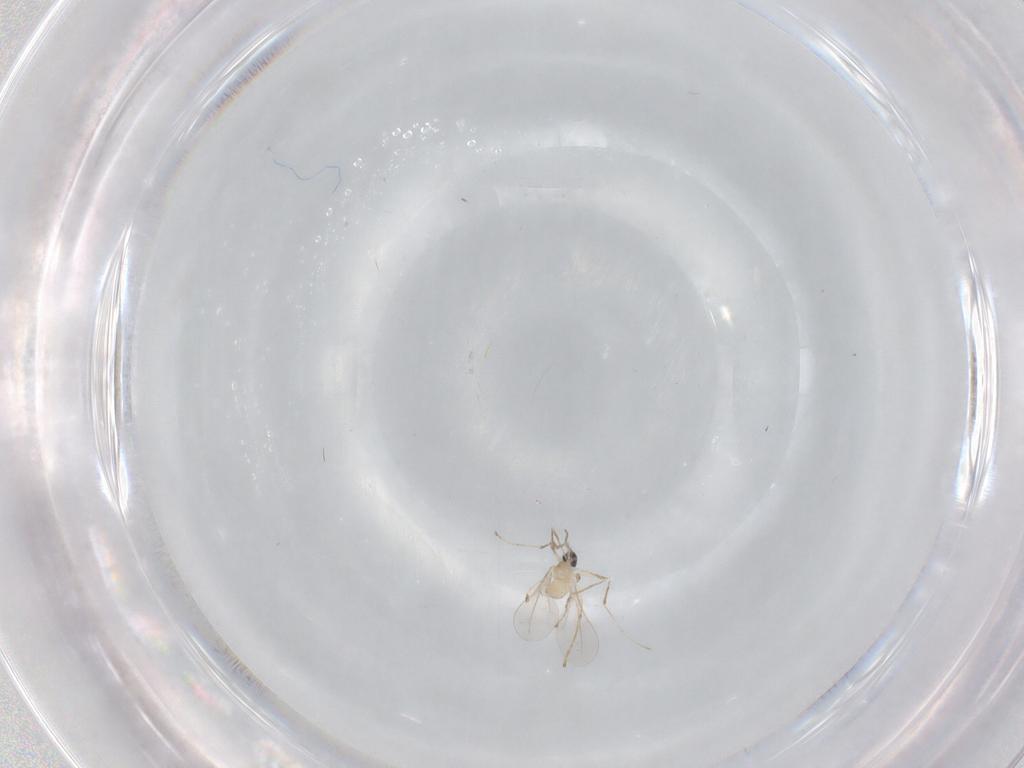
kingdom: Animalia
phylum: Arthropoda
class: Insecta
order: Diptera
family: Cecidomyiidae
